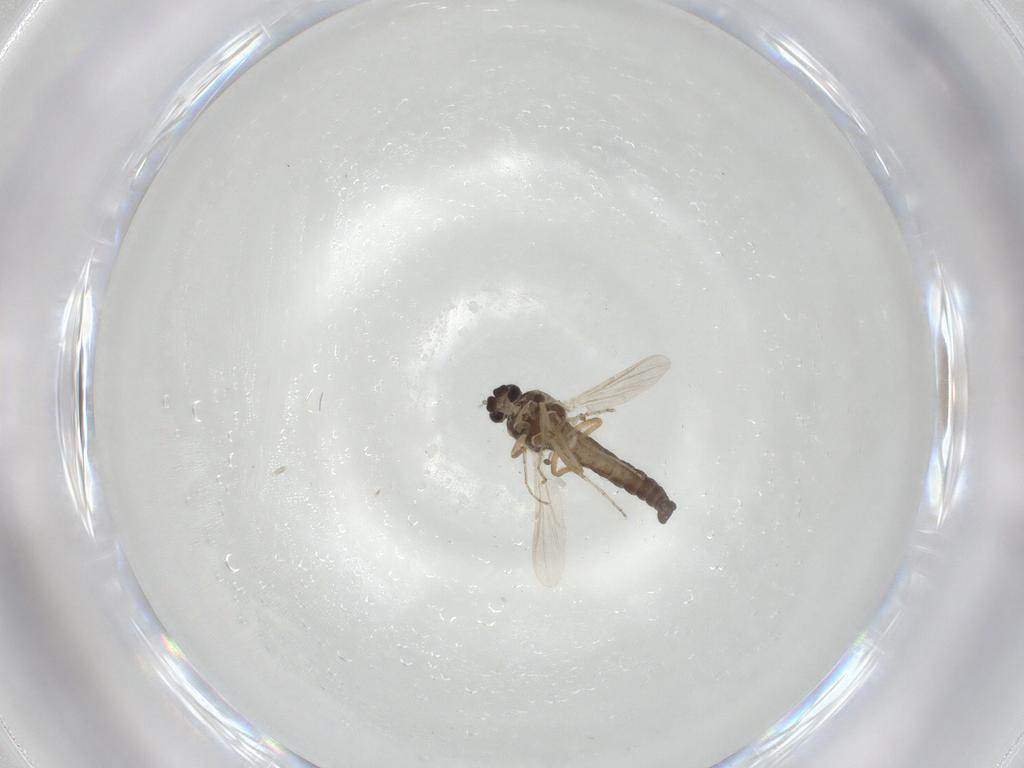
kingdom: Animalia
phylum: Arthropoda
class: Insecta
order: Diptera
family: Ceratopogonidae
